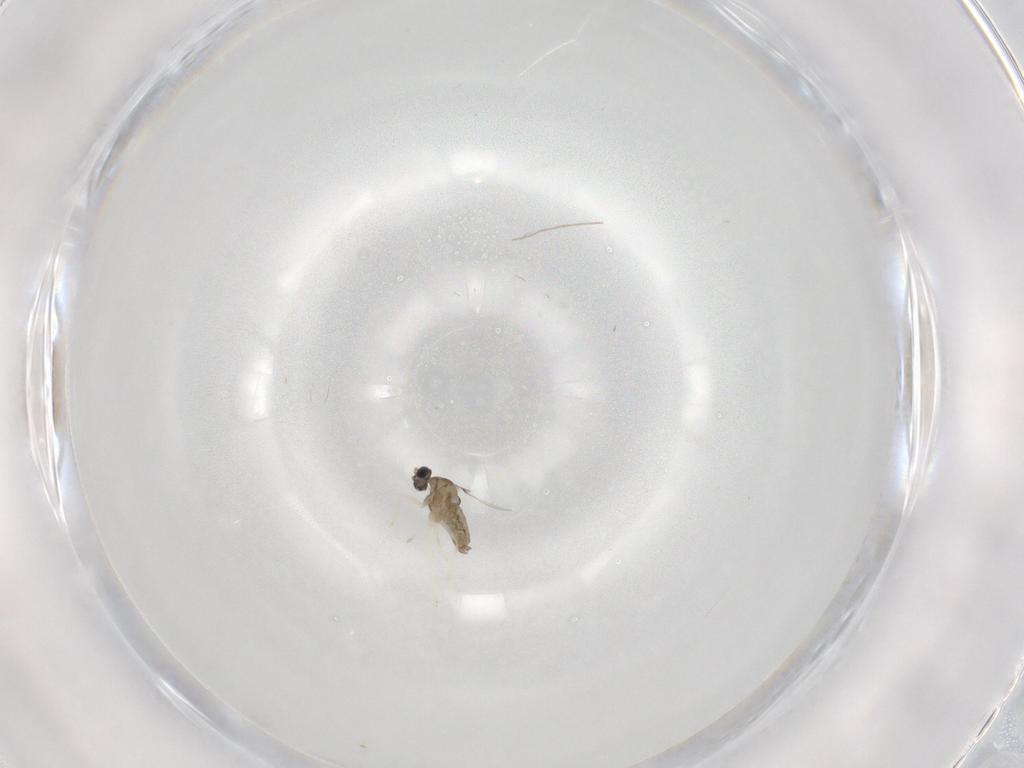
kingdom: Animalia
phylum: Arthropoda
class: Insecta
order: Diptera
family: Cecidomyiidae
